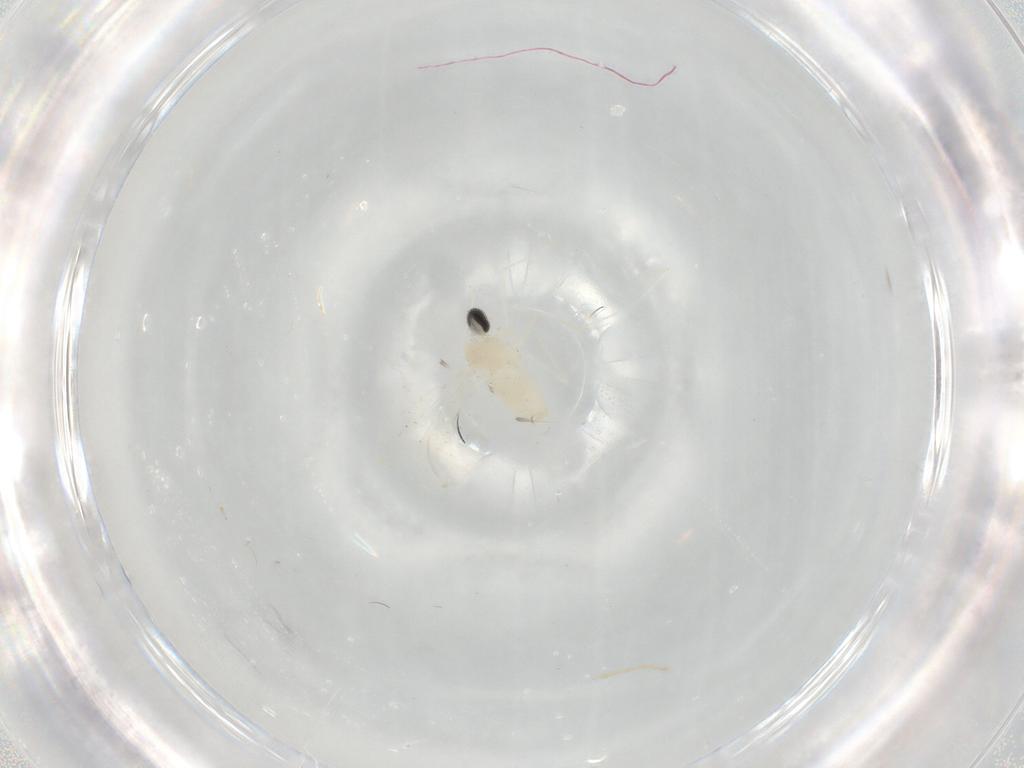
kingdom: Animalia
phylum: Arthropoda
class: Insecta
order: Diptera
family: Cecidomyiidae
